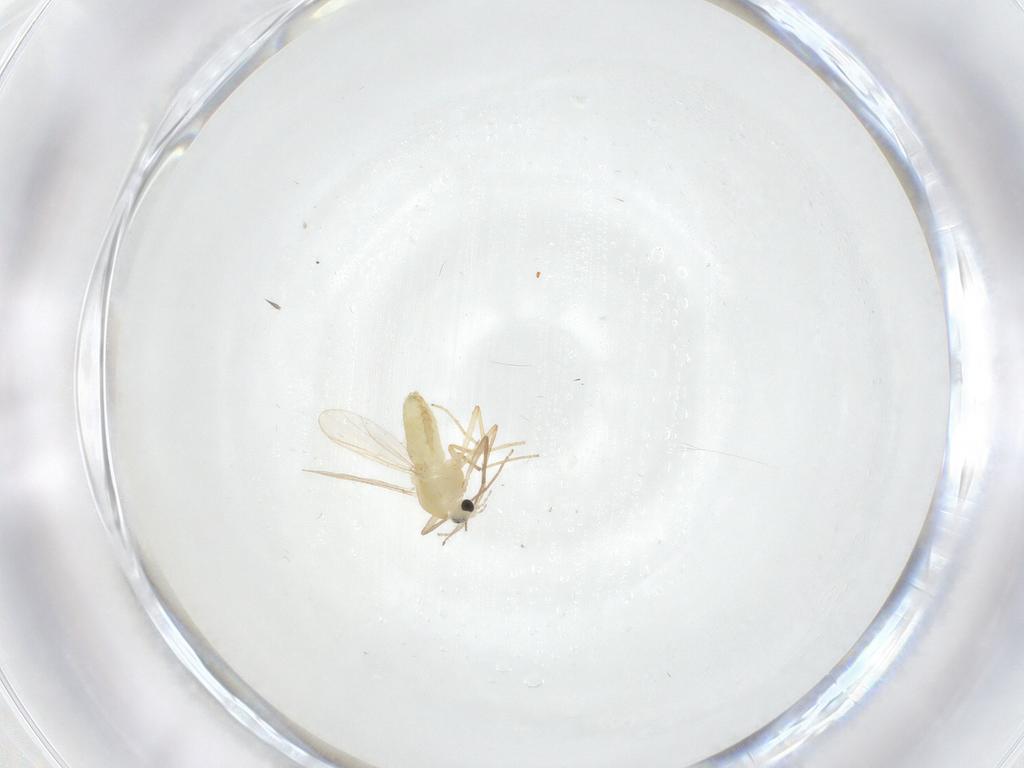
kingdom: Animalia
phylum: Arthropoda
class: Insecta
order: Diptera
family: Chironomidae
